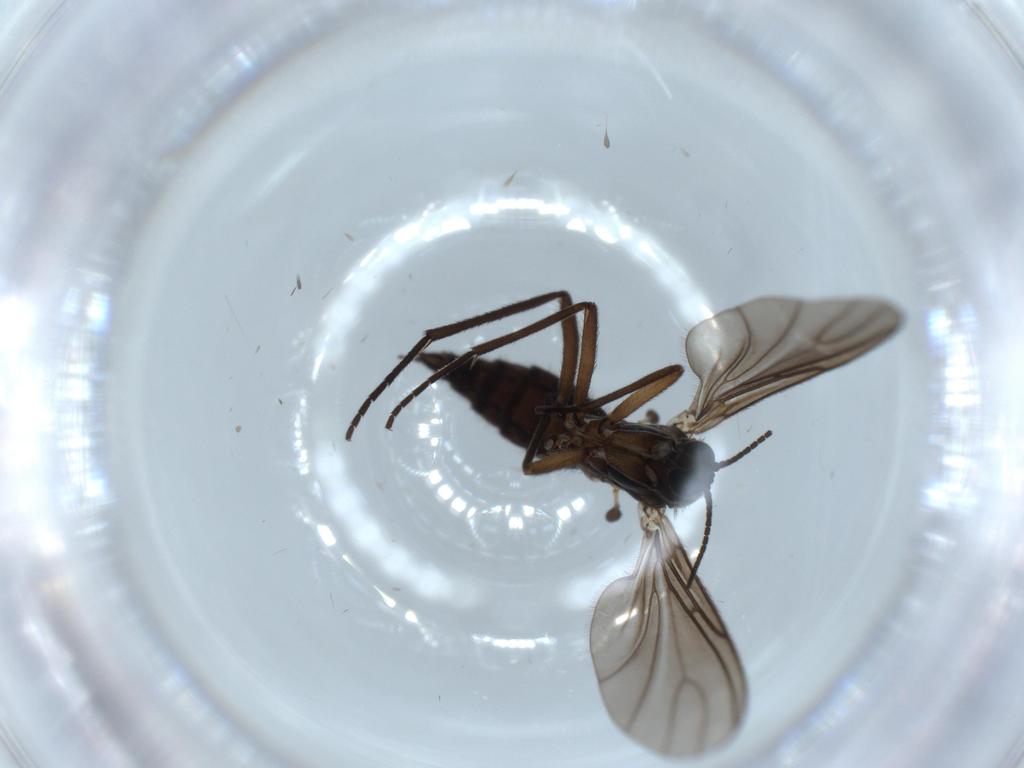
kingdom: Animalia
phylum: Arthropoda
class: Insecta
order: Diptera
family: Sciaridae
